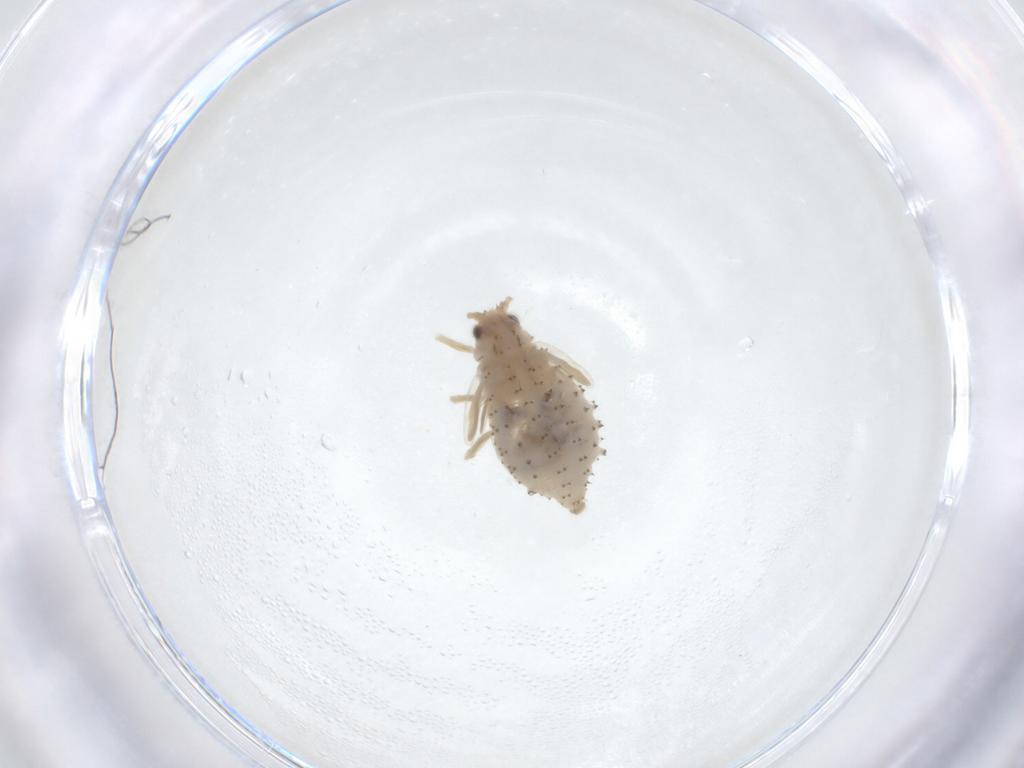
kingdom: Animalia
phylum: Arthropoda
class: Insecta
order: Hemiptera
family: Aphididae
